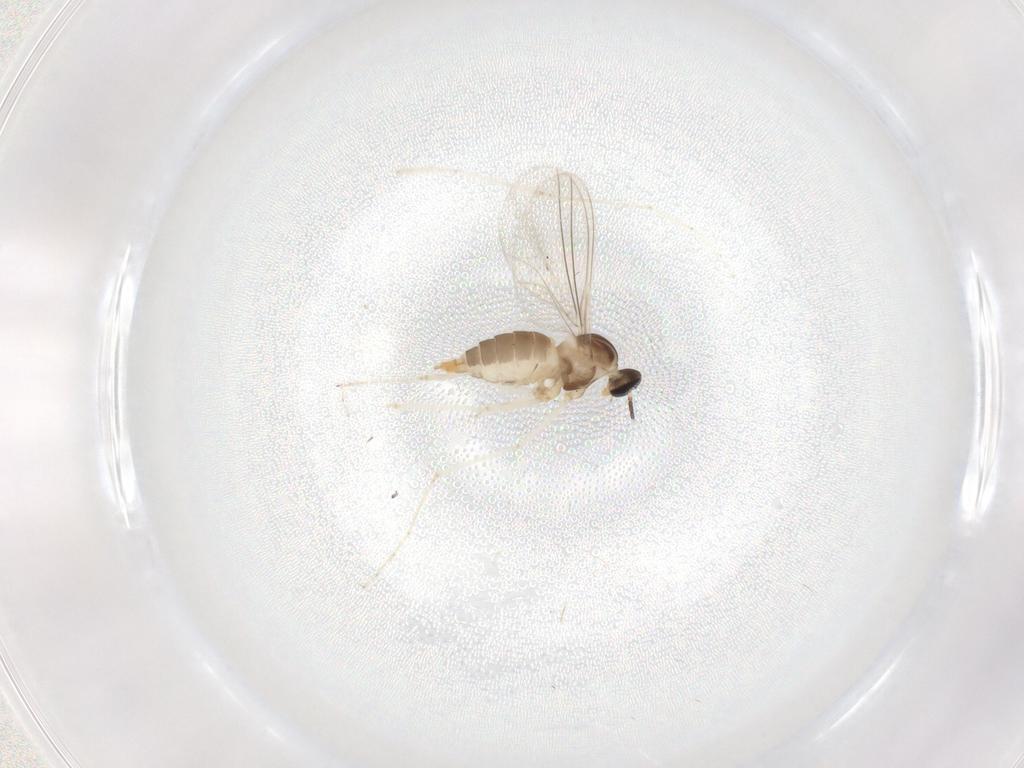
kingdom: Animalia
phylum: Arthropoda
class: Insecta
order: Diptera
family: Cecidomyiidae
